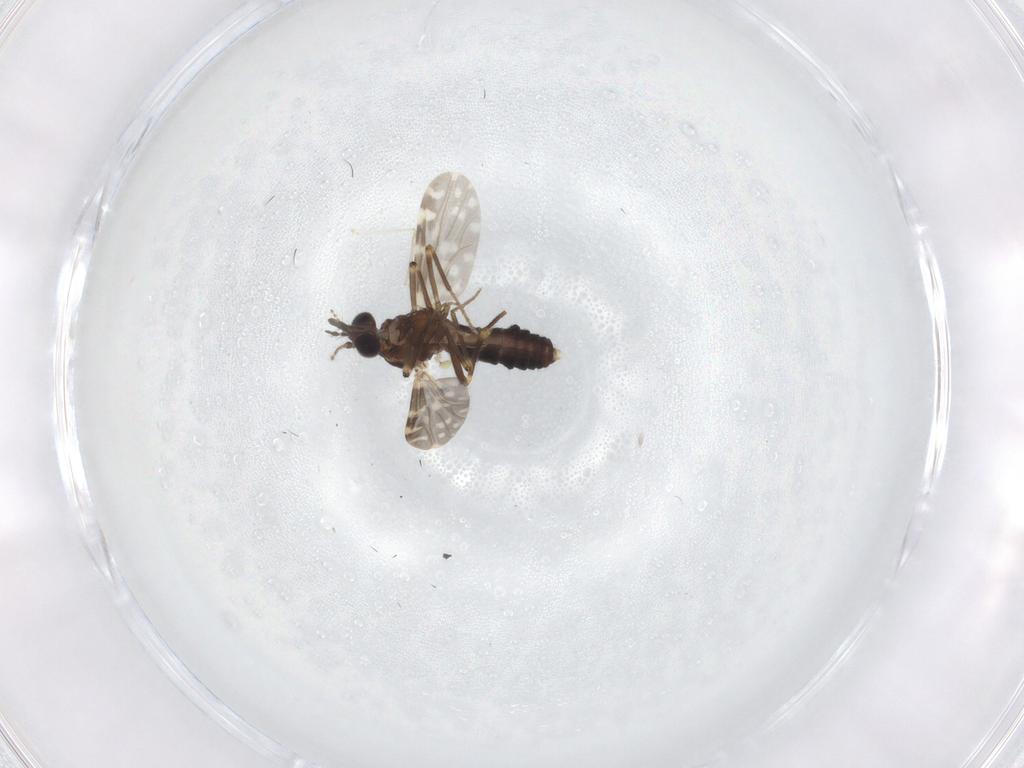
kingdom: Animalia
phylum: Arthropoda
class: Insecta
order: Diptera
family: Ceratopogonidae
